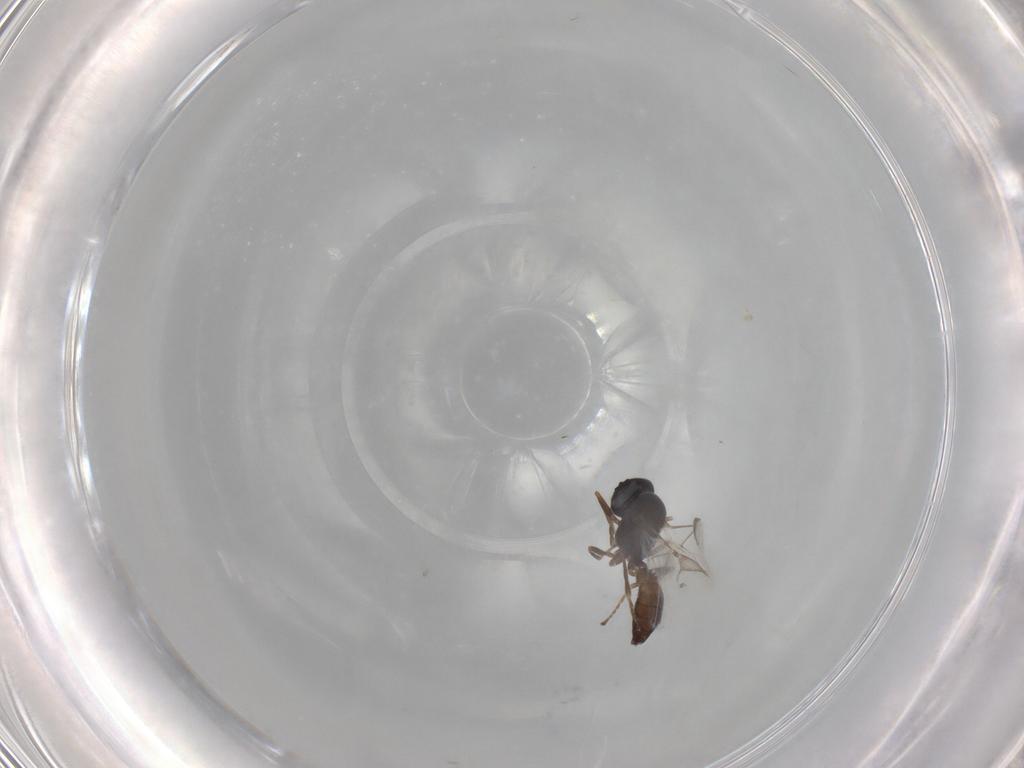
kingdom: Animalia
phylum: Arthropoda
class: Insecta
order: Hymenoptera
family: Braconidae
